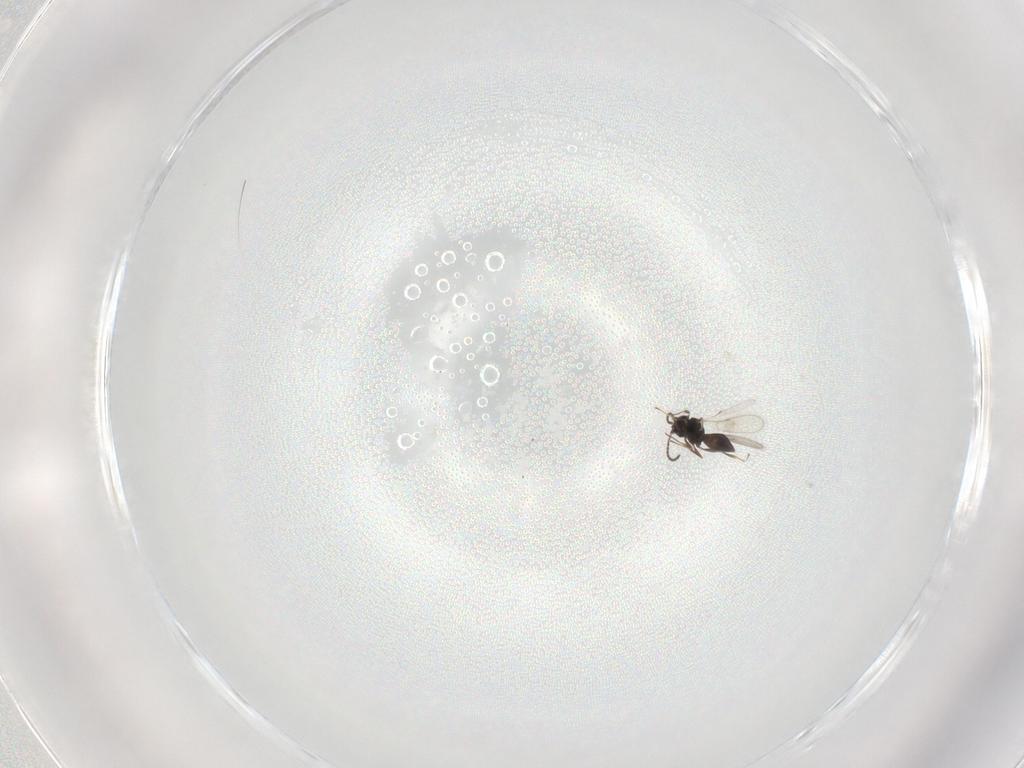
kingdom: Animalia
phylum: Arthropoda
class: Insecta
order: Hymenoptera
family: Scelionidae
